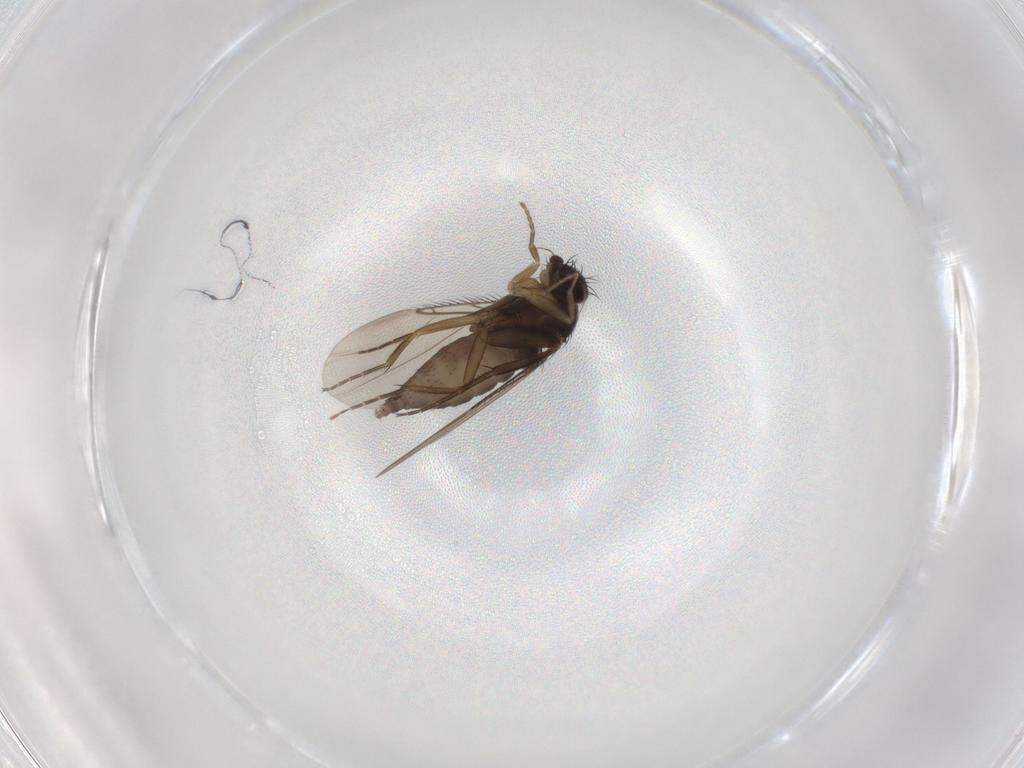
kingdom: Animalia
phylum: Arthropoda
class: Insecta
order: Diptera
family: Phoridae
